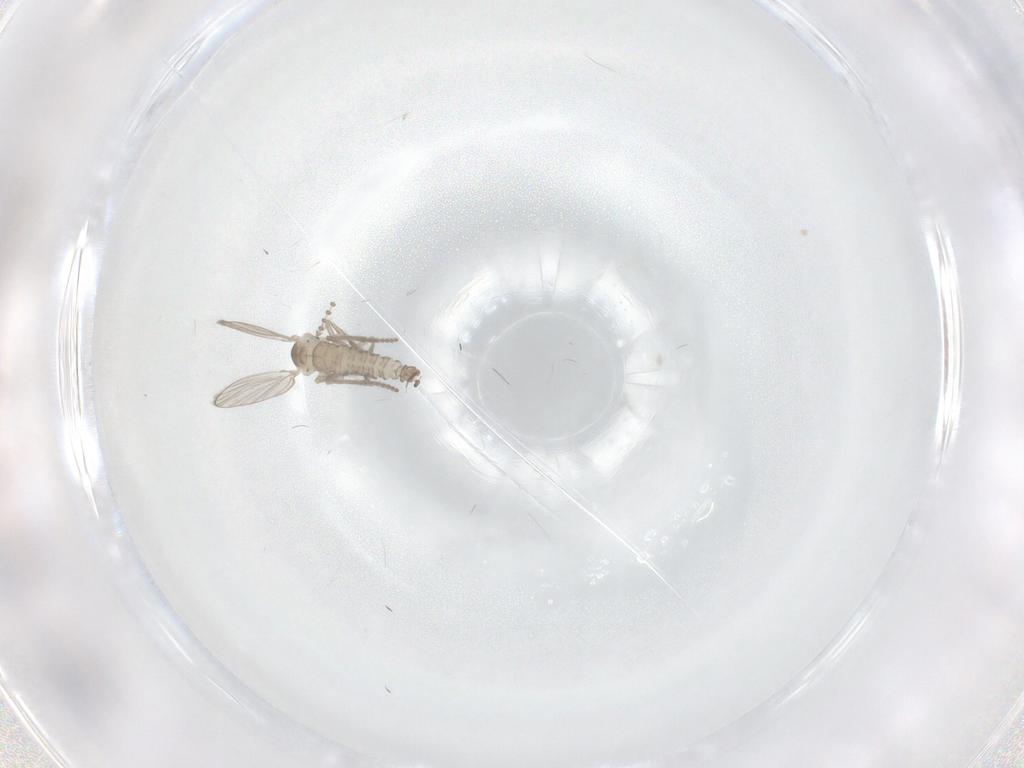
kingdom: Animalia
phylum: Arthropoda
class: Insecta
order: Diptera
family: Psychodidae
